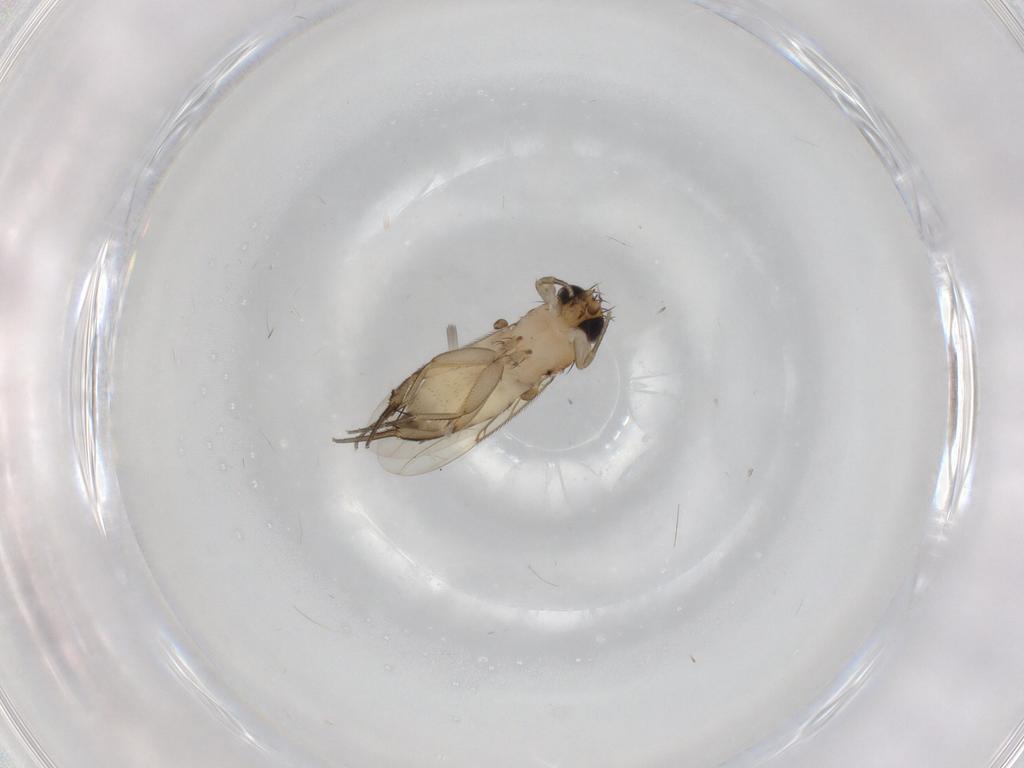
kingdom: Animalia
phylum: Arthropoda
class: Insecta
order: Diptera
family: Phoridae
